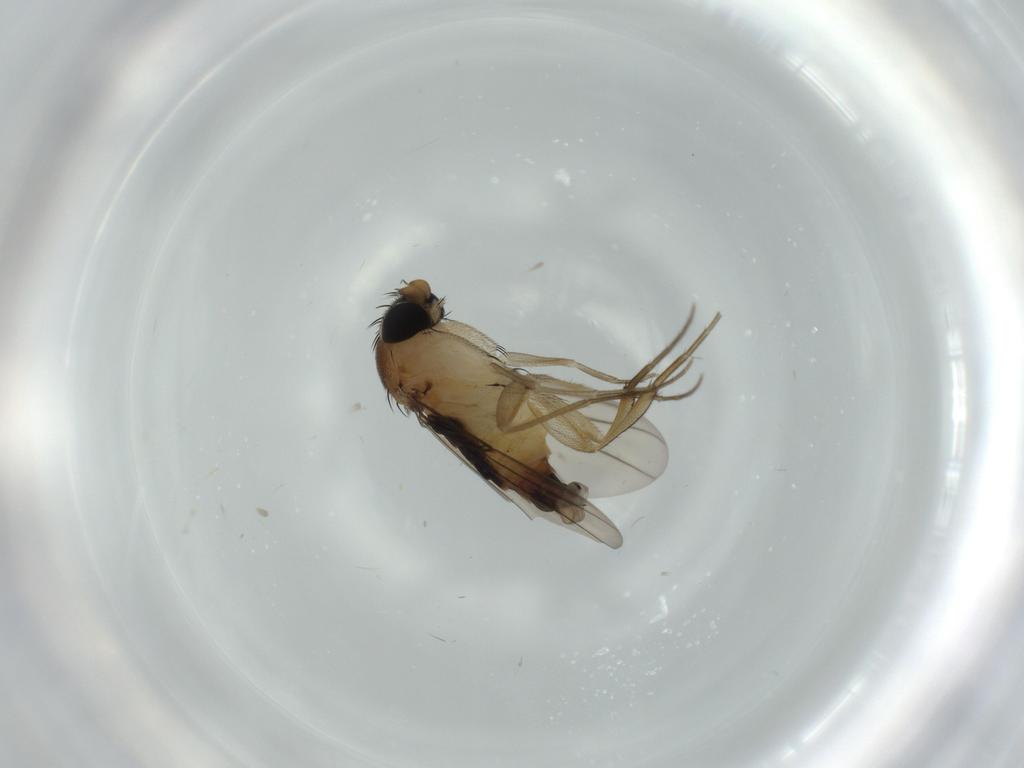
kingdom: Animalia
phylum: Arthropoda
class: Insecta
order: Diptera
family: Phoridae
